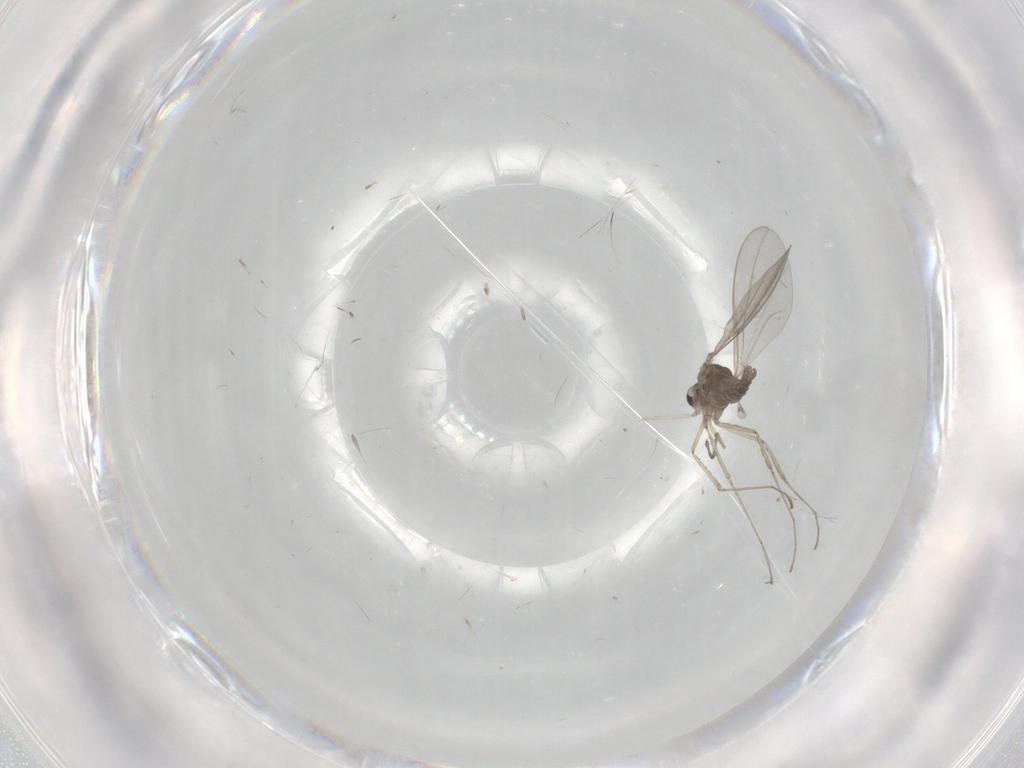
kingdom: Animalia
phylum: Arthropoda
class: Insecta
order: Diptera
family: Cecidomyiidae
